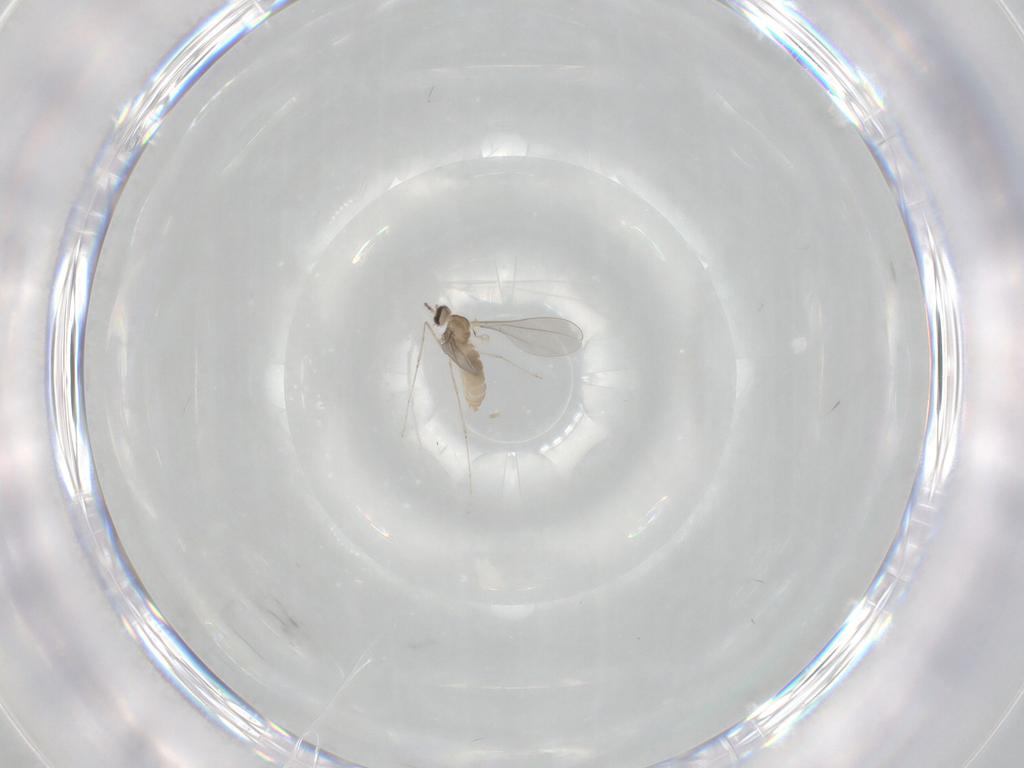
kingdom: Animalia
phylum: Arthropoda
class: Insecta
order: Diptera
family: Cecidomyiidae
